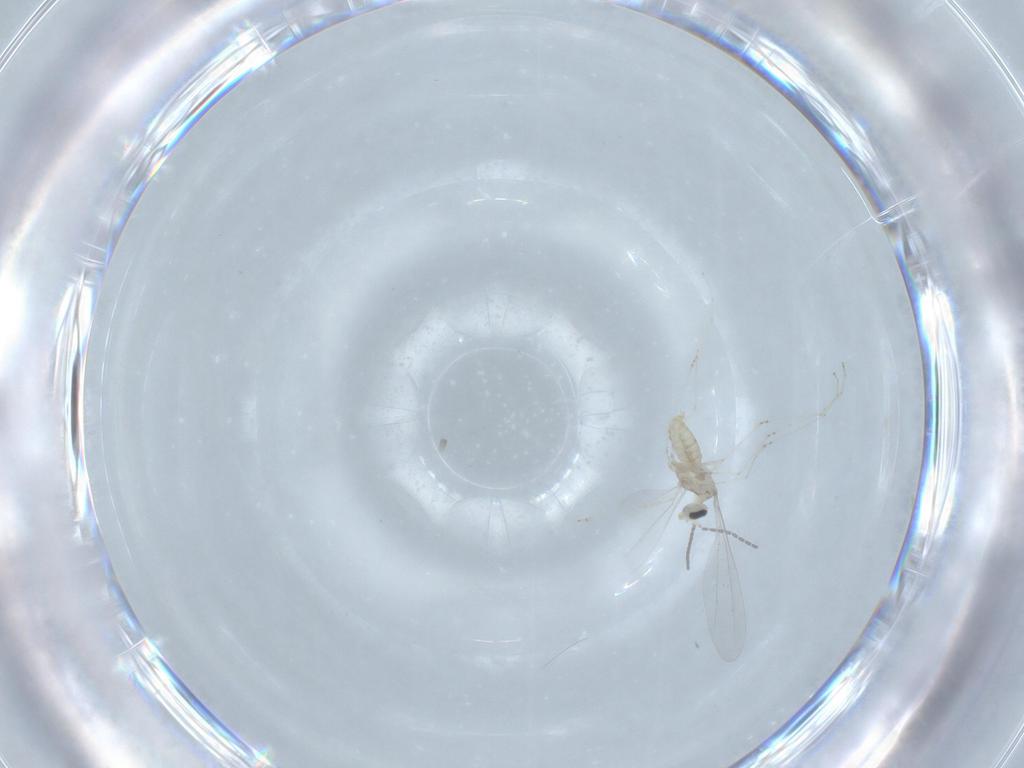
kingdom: Animalia
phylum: Arthropoda
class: Insecta
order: Diptera
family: Cecidomyiidae
